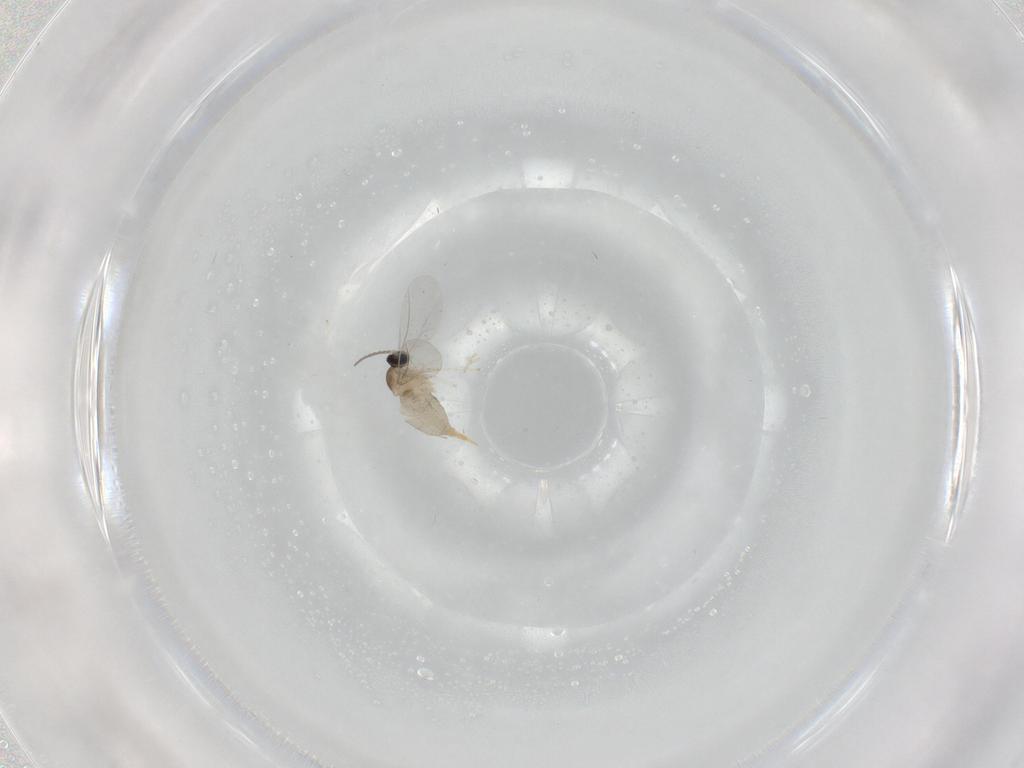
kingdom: Animalia
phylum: Arthropoda
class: Insecta
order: Diptera
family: Cecidomyiidae
